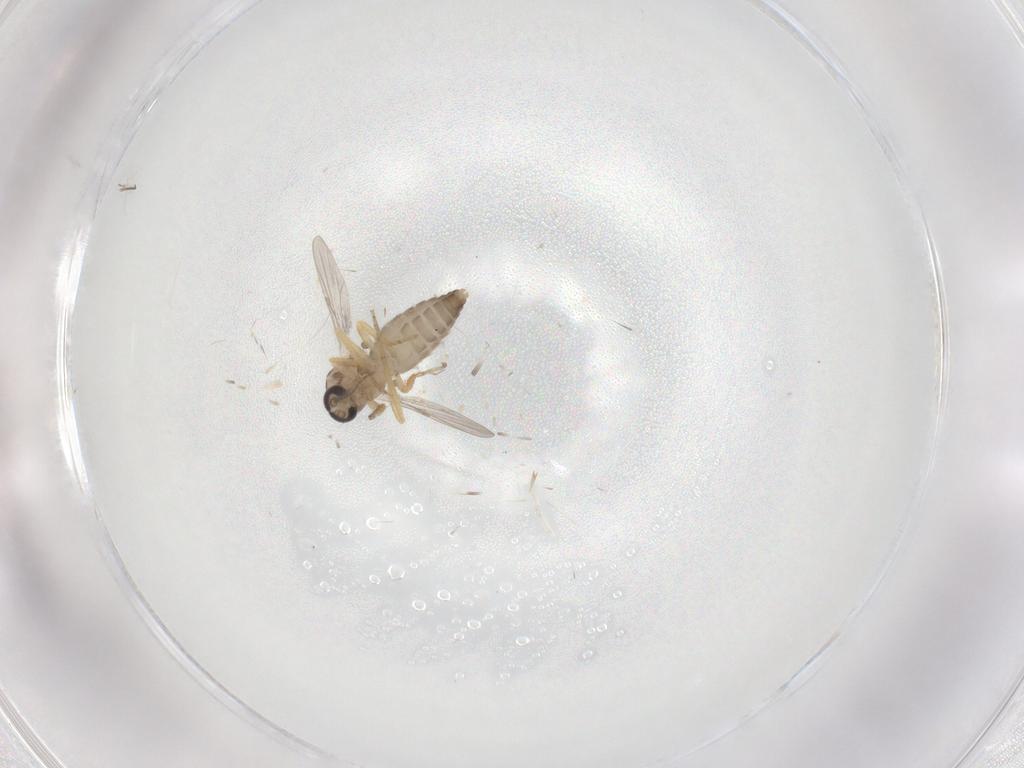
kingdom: Animalia
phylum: Arthropoda
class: Insecta
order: Diptera
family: Ceratopogonidae
